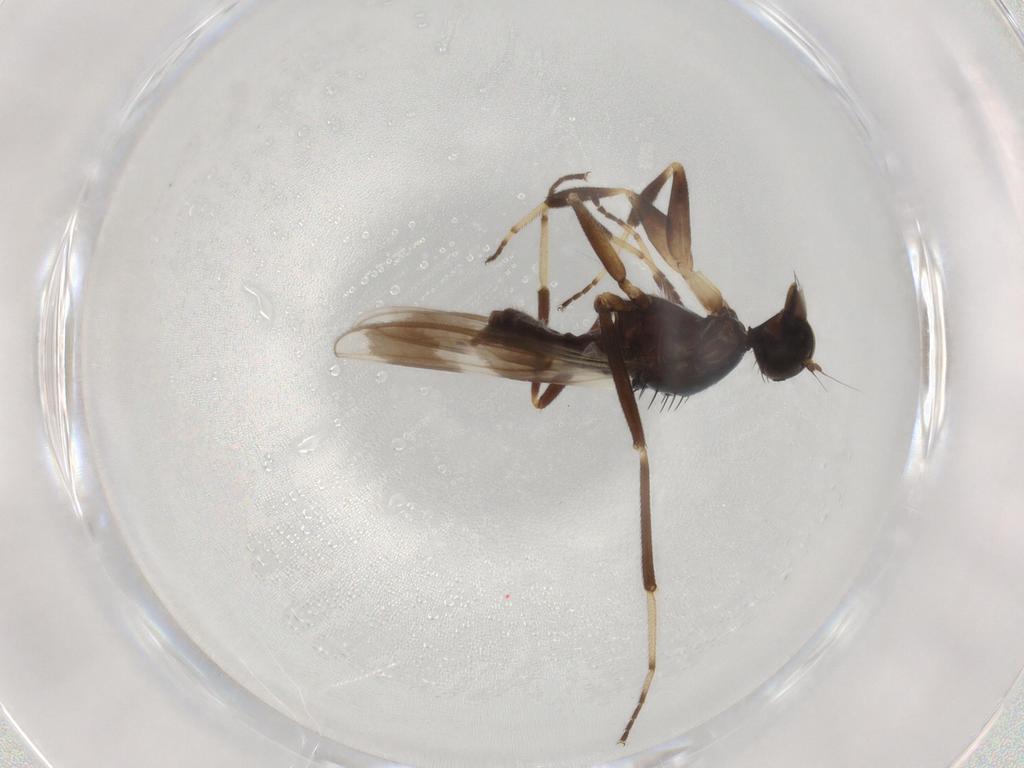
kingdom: Animalia
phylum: Arthropoda
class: Insecta
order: Diptera
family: Hybotidae
